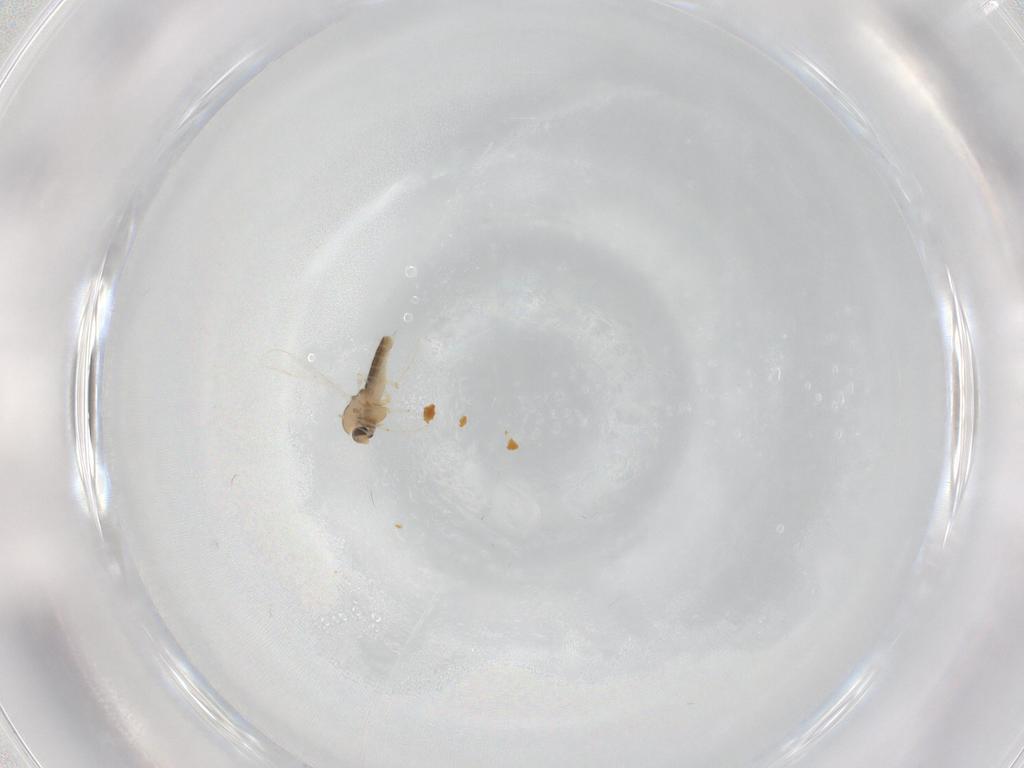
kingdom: Animalia
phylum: Arthropoda
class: Insecta
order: Diptera
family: Chironomidae
